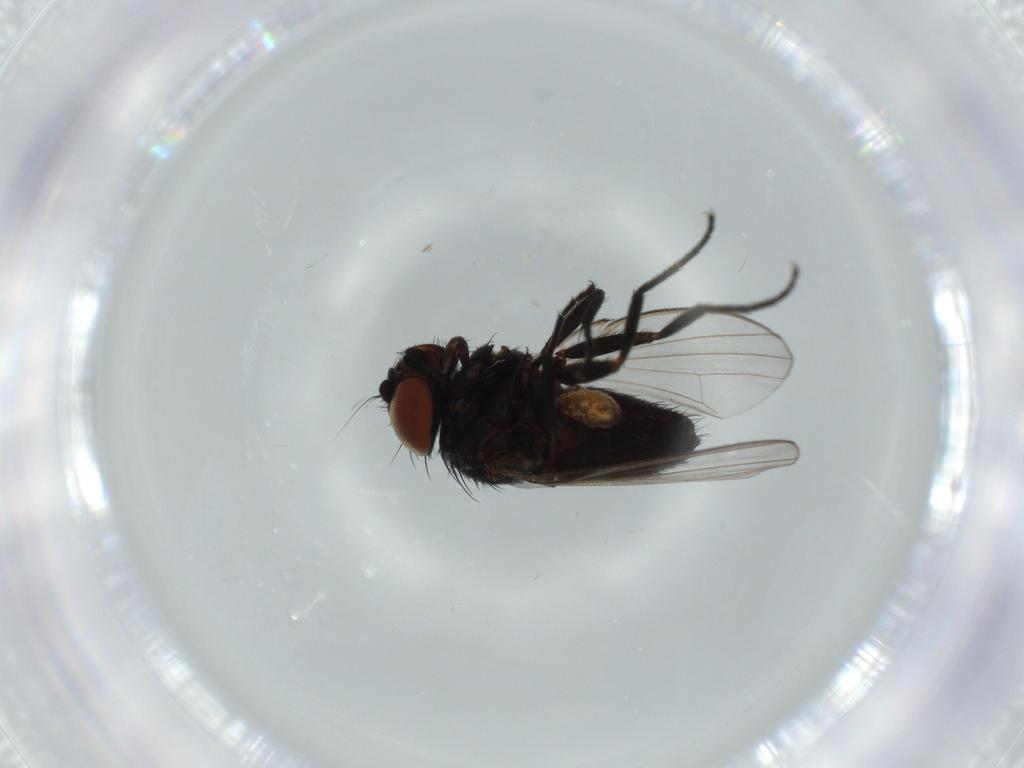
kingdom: Animalia
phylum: Arthropoda
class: Insecta
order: Diptera
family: Milichiidae
